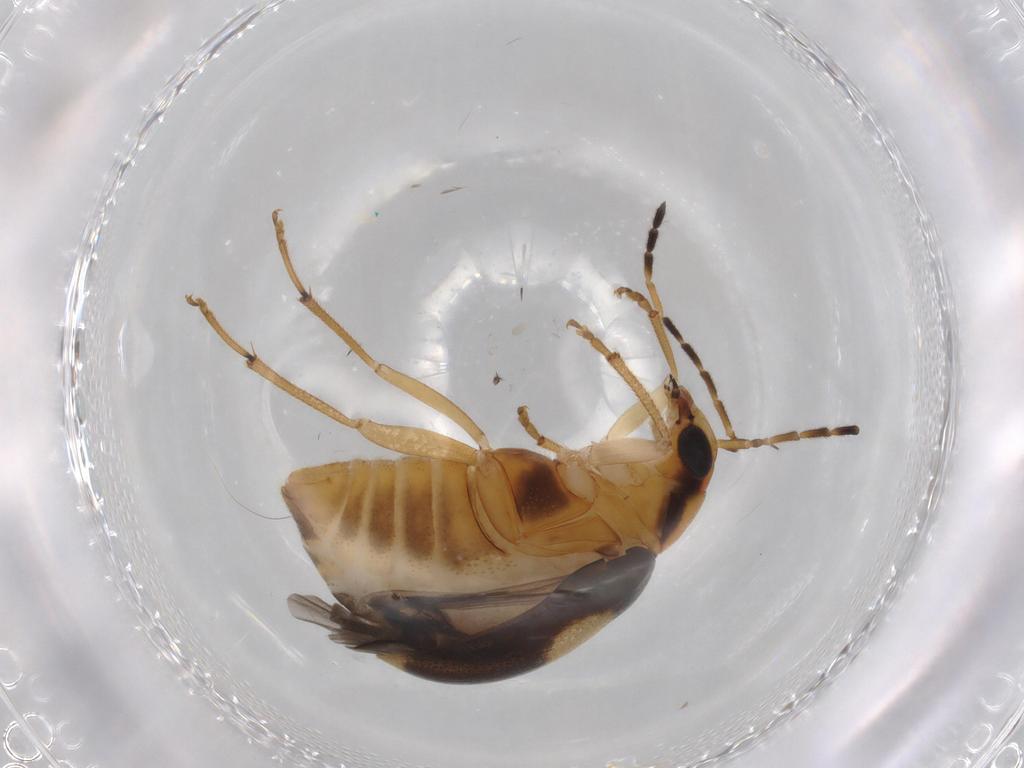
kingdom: Animalia
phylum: Arthropoda
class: Insecta
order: Coleoptera
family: Chrysomelidae
